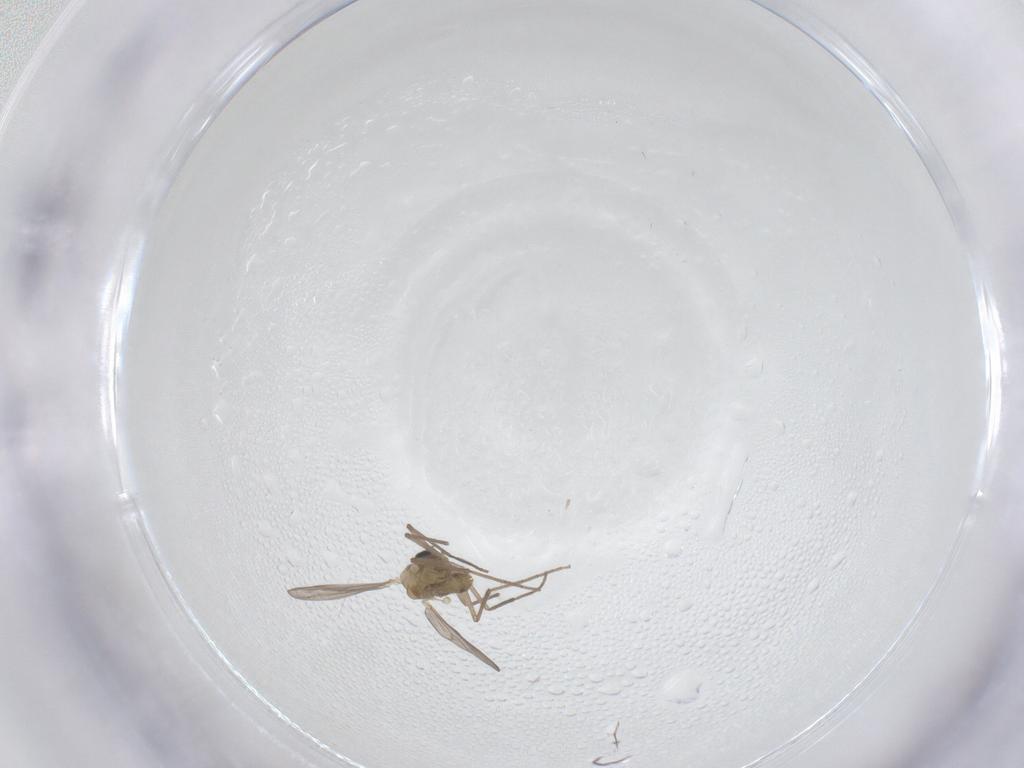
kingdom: Animalia
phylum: Arthropoda
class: Insecta
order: Diptera
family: Chironomidae
